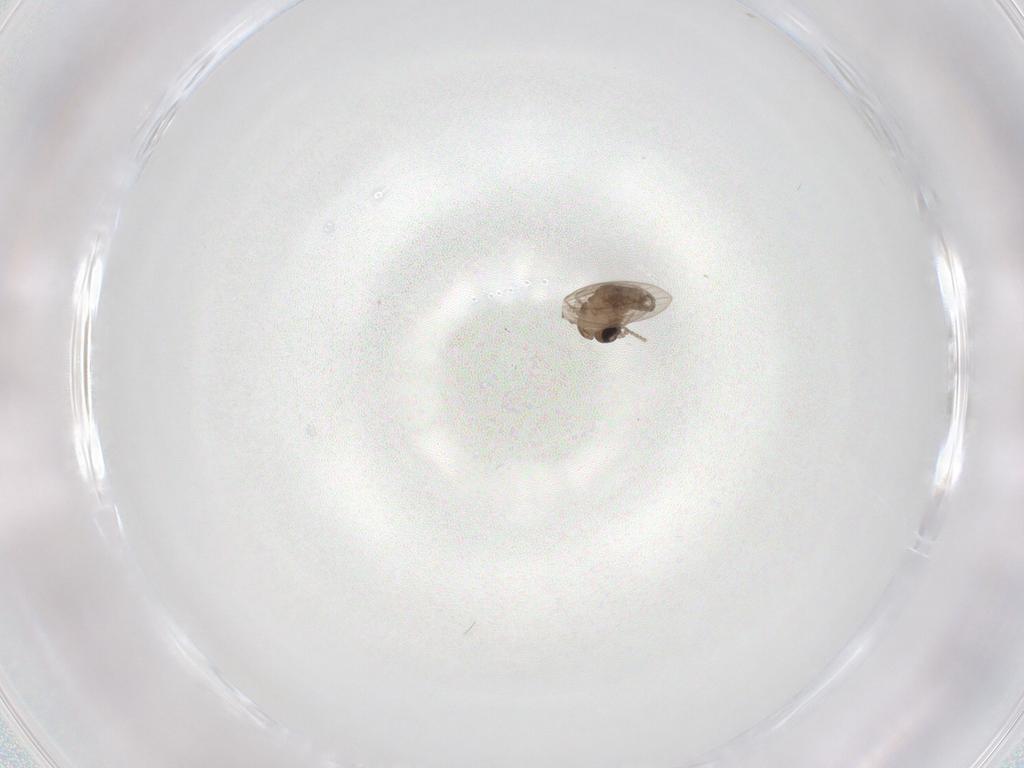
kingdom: Animalia
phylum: Arthropoda
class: Insecta
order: Diptera
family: Psychodidae
